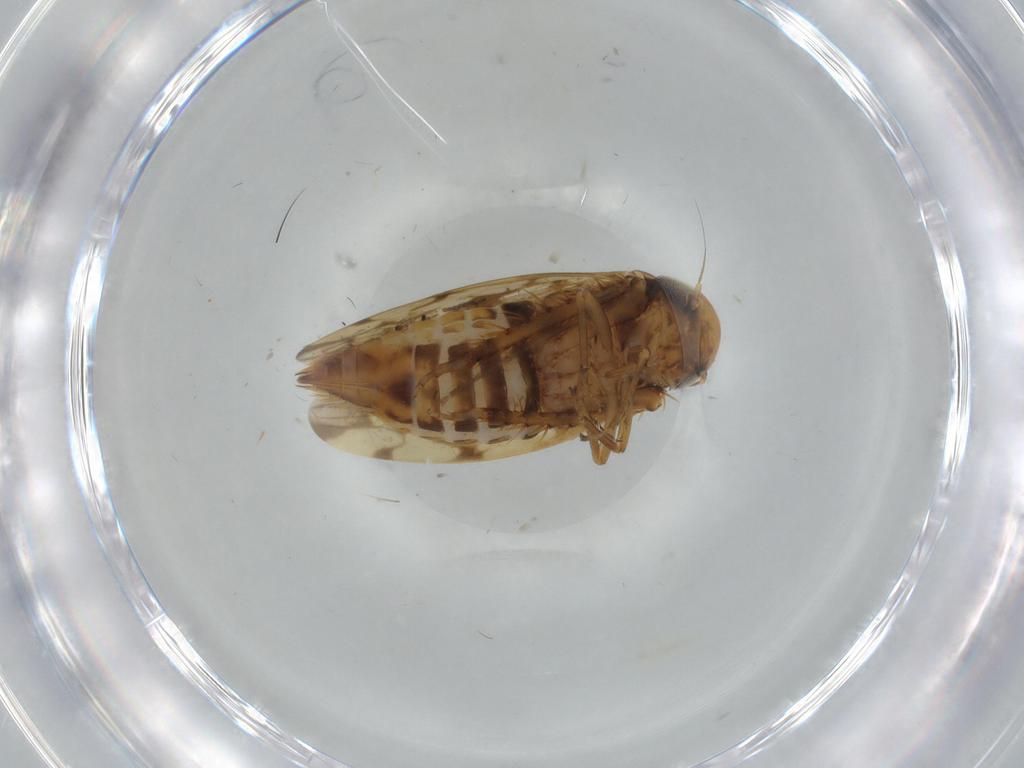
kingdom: Animalia
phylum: Arthropoda
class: Insecta
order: Hemiptera
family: Cicadellidae
